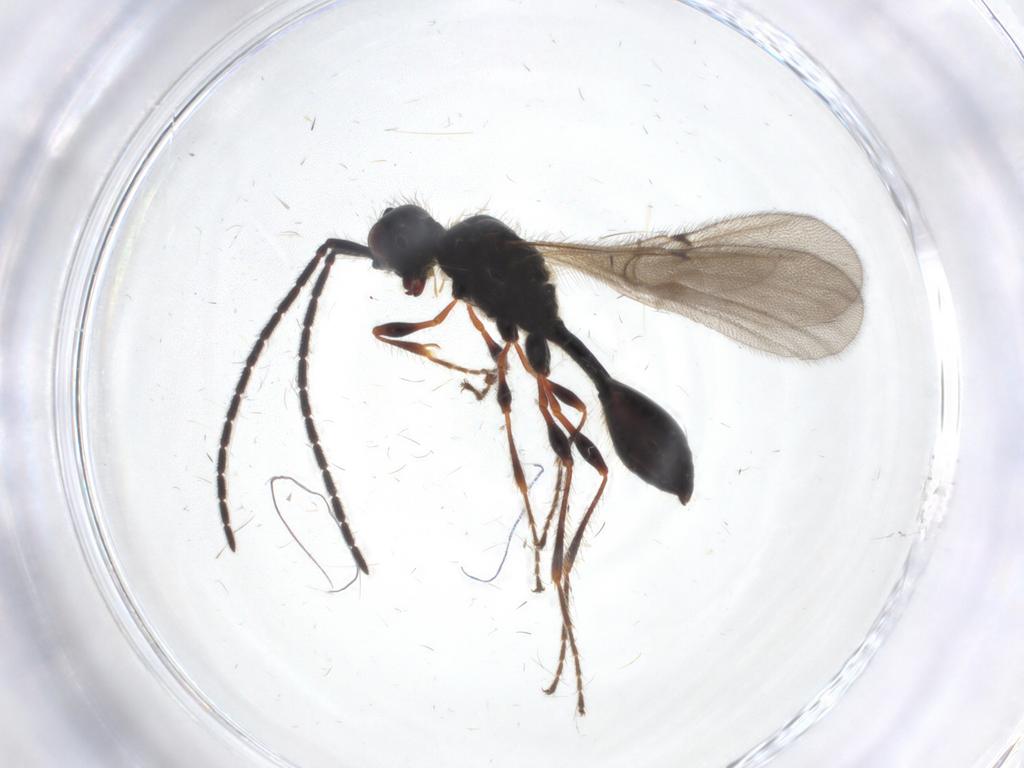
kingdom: Animalia
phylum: Arthropoda
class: Insecta
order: Hymenoptera
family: Diapriidae
